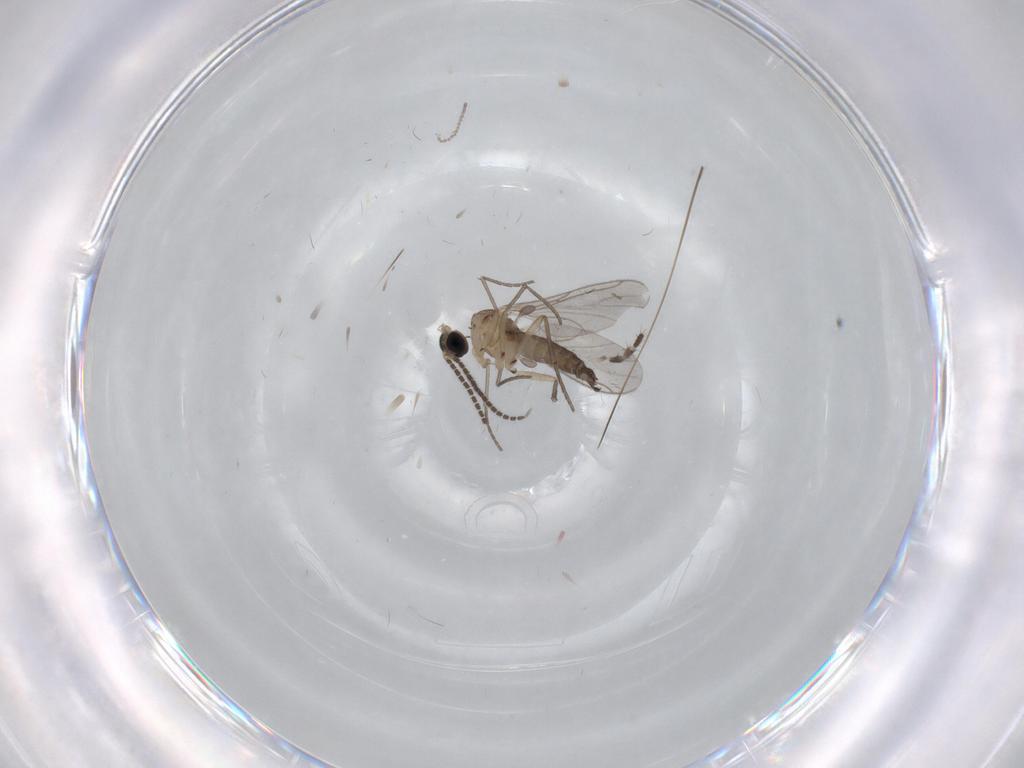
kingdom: Animalia
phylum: Arthropoda
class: Insecta
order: Diptera
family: Sciaridae
